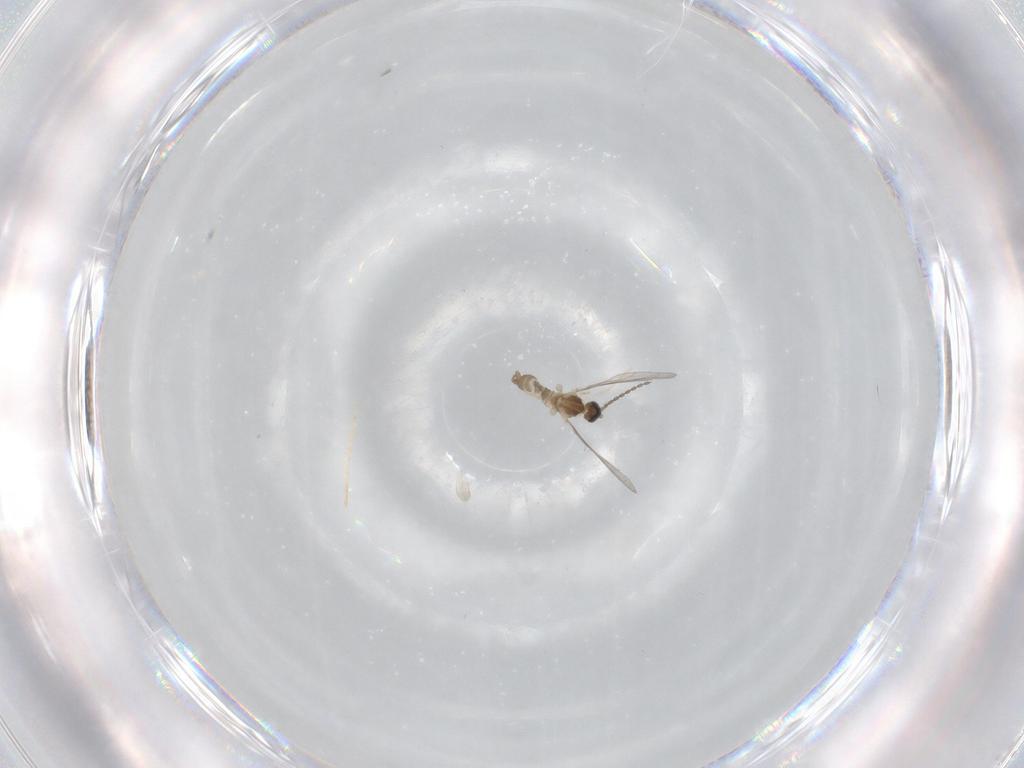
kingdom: Animalia
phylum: Arthropoda
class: Insecta
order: Diptera
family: Cecidomyiidae
